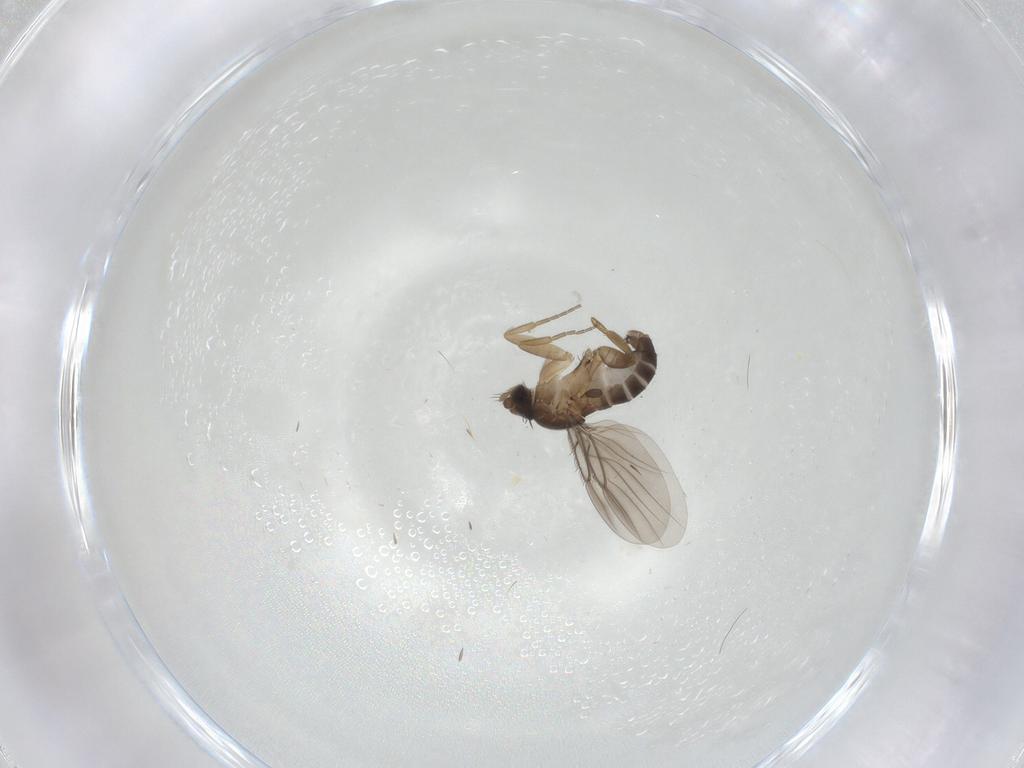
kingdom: Animalia
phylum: Arthropoda
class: Insecta
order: Diptera
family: Phoridae
